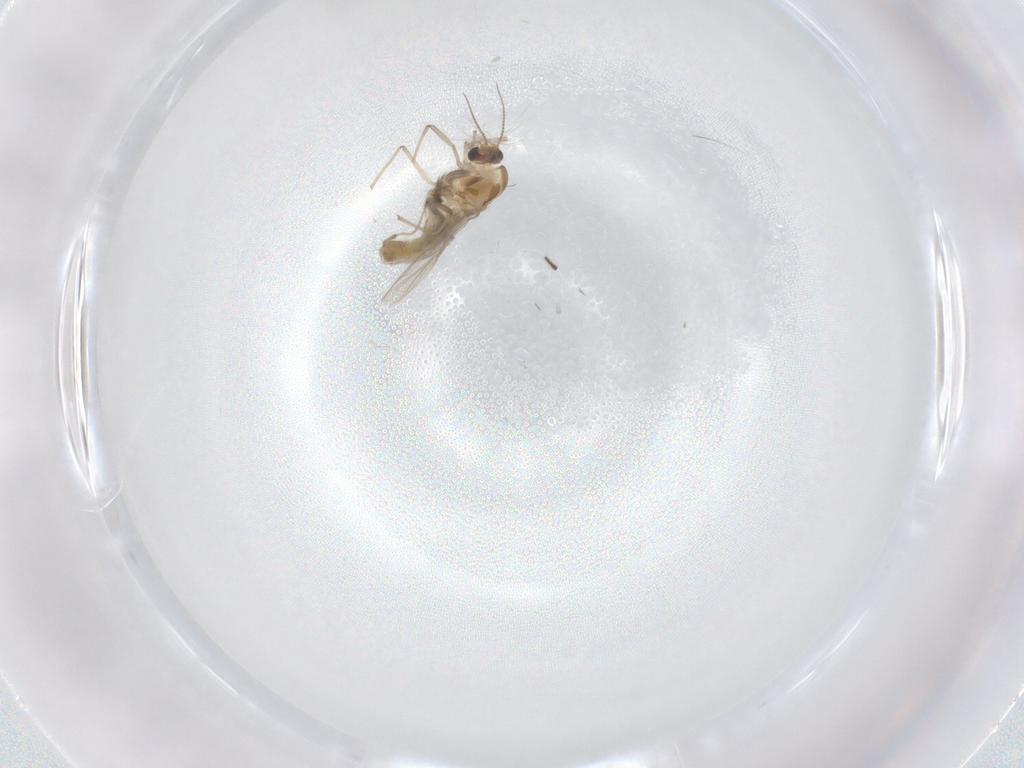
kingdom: Animalia
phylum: Arthropoda
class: Insecta
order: Diptera
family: Chironomidae
